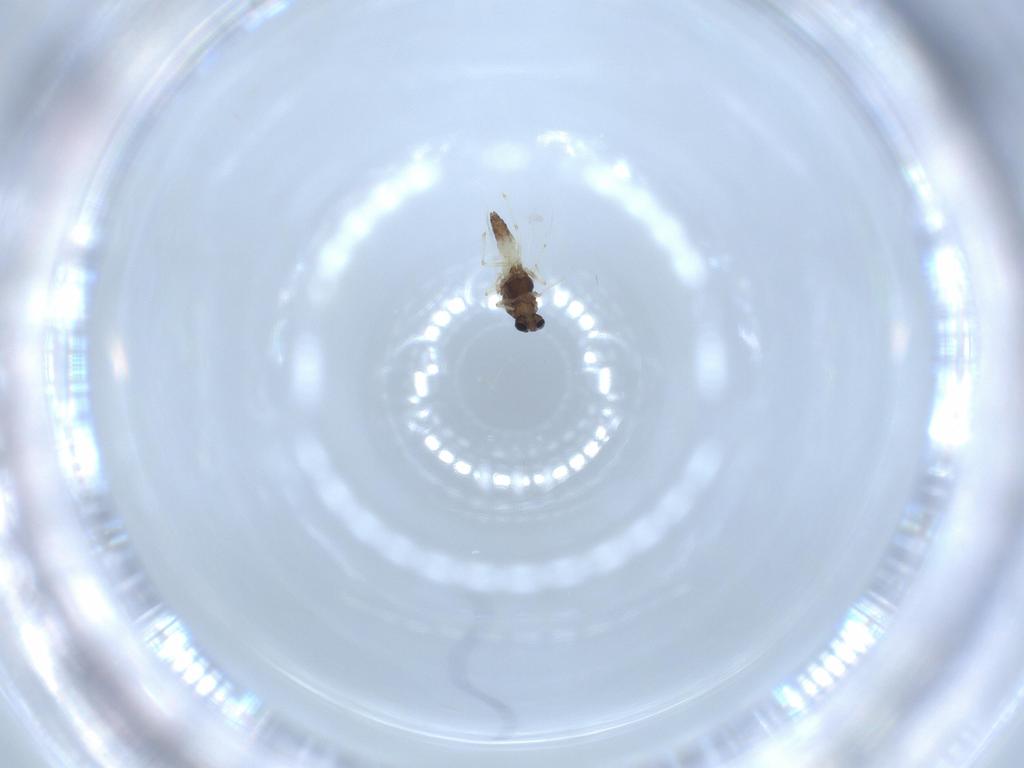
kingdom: Animalia
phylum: Arthropoda
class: Insecta
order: Diptera
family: Chironomidae
